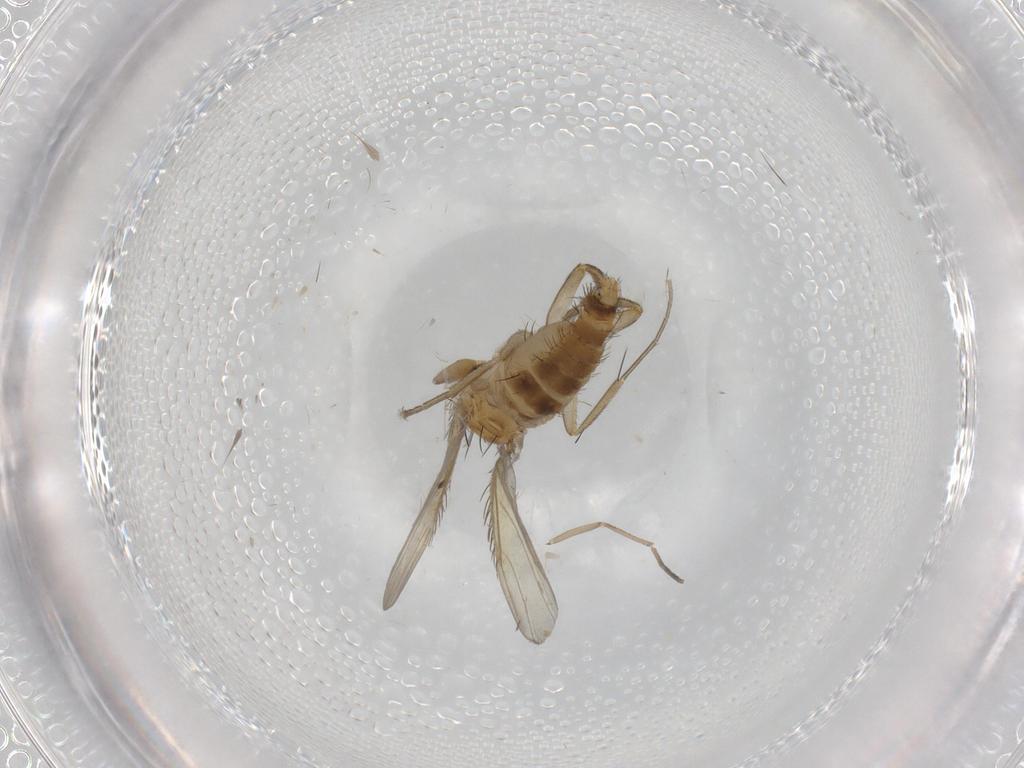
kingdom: Animalia
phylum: Arthropoda
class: Insecta
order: Diptera
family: Phoridae
